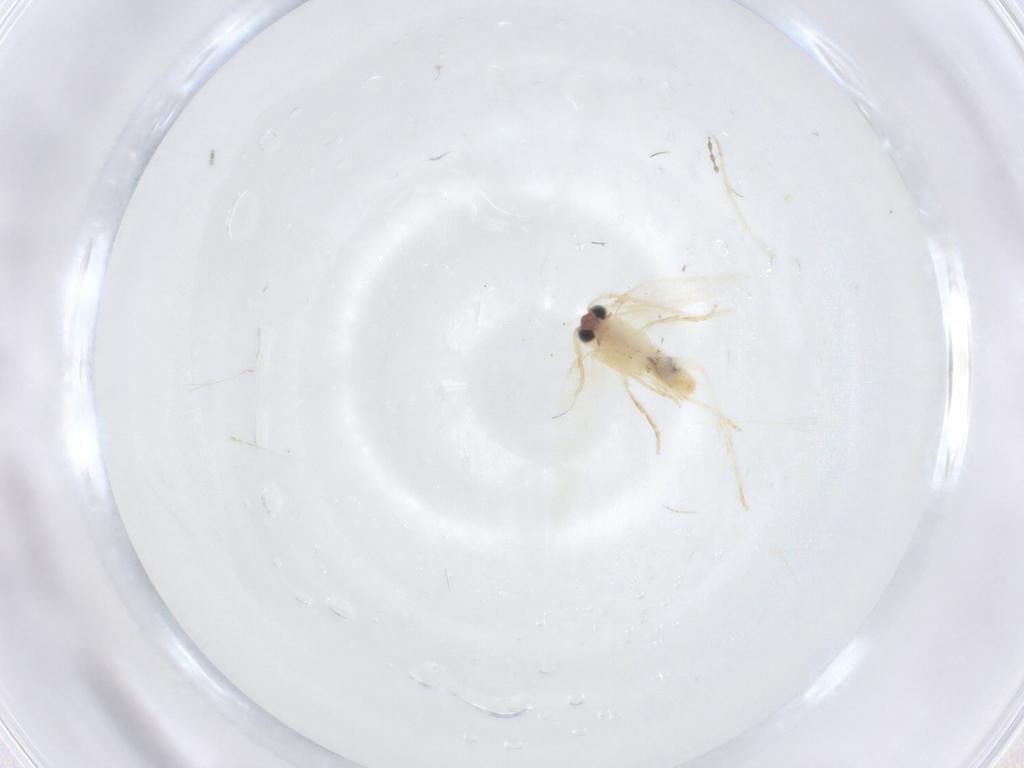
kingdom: Animalia
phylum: Arthropoda
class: Insecta
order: Lepidoptera
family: Nepticulidae
